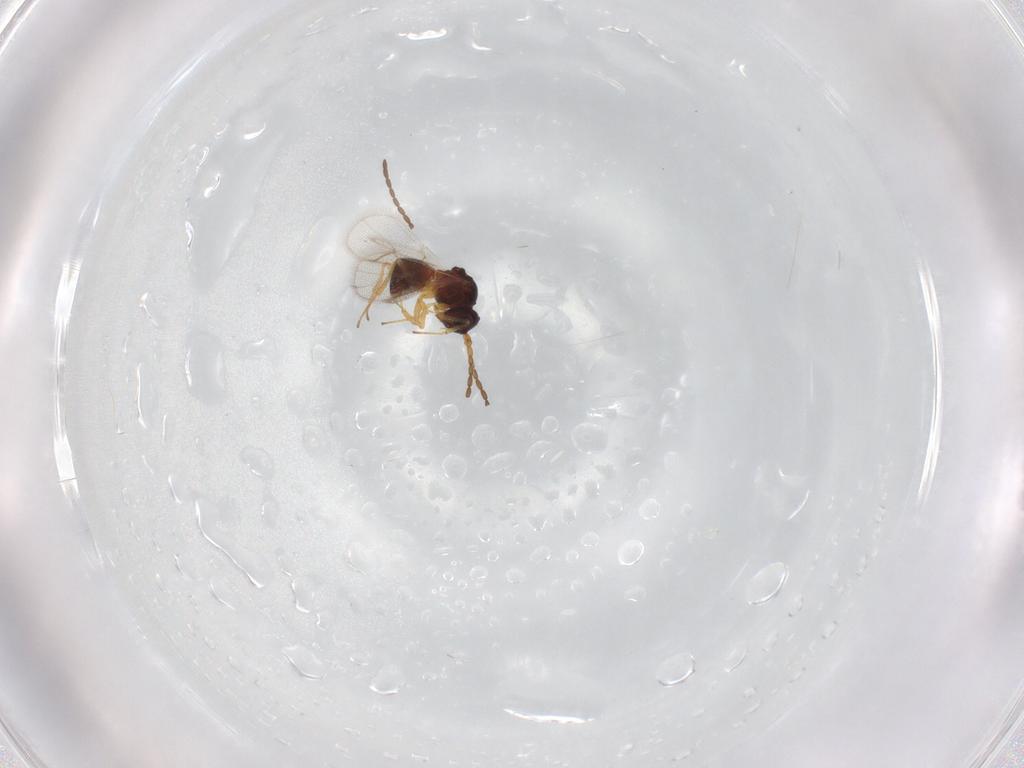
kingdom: Animalia
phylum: Arthropoda
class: Insecta
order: Hymenoptera
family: Figitidae
